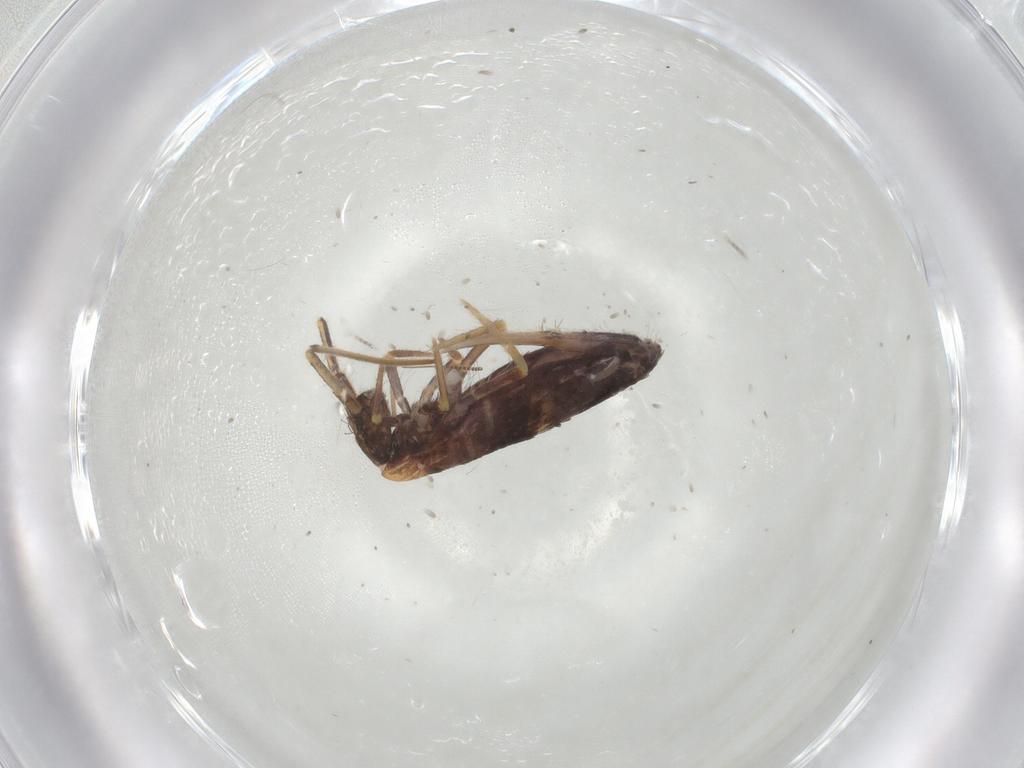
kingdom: Animalia
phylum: Arthropoda
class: Collembola
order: Entomobryomorpha
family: Entomobryidae
